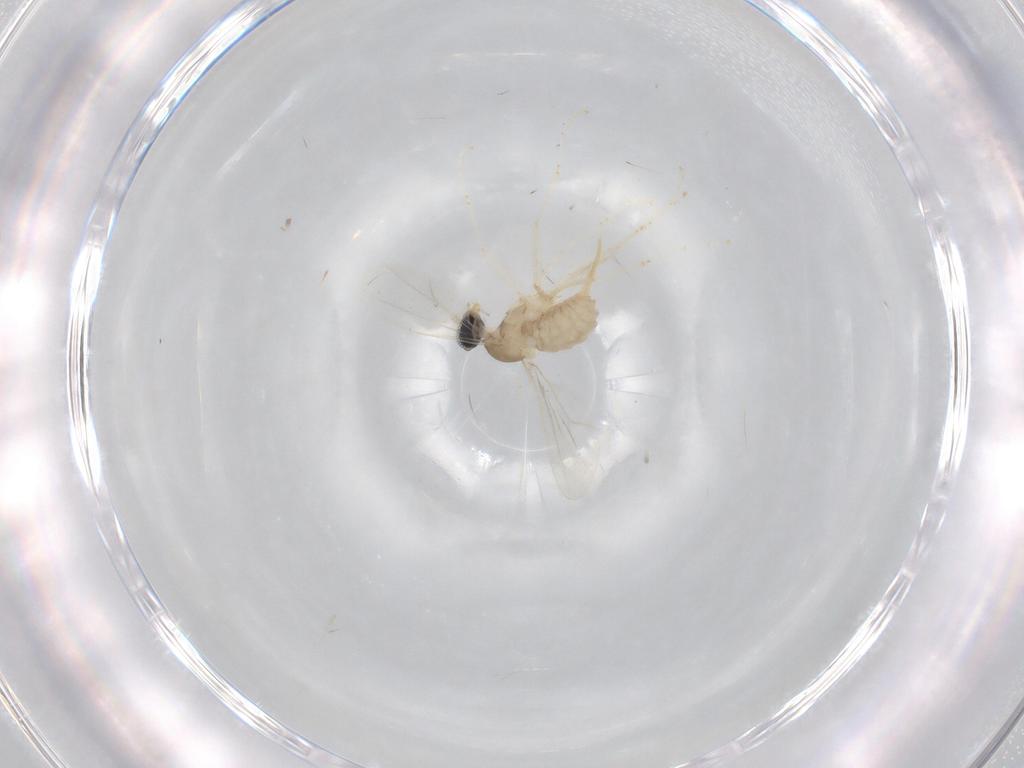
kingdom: Animalia
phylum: Arthropoda
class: Insecta
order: Diptera
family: Cecidomyiidae
